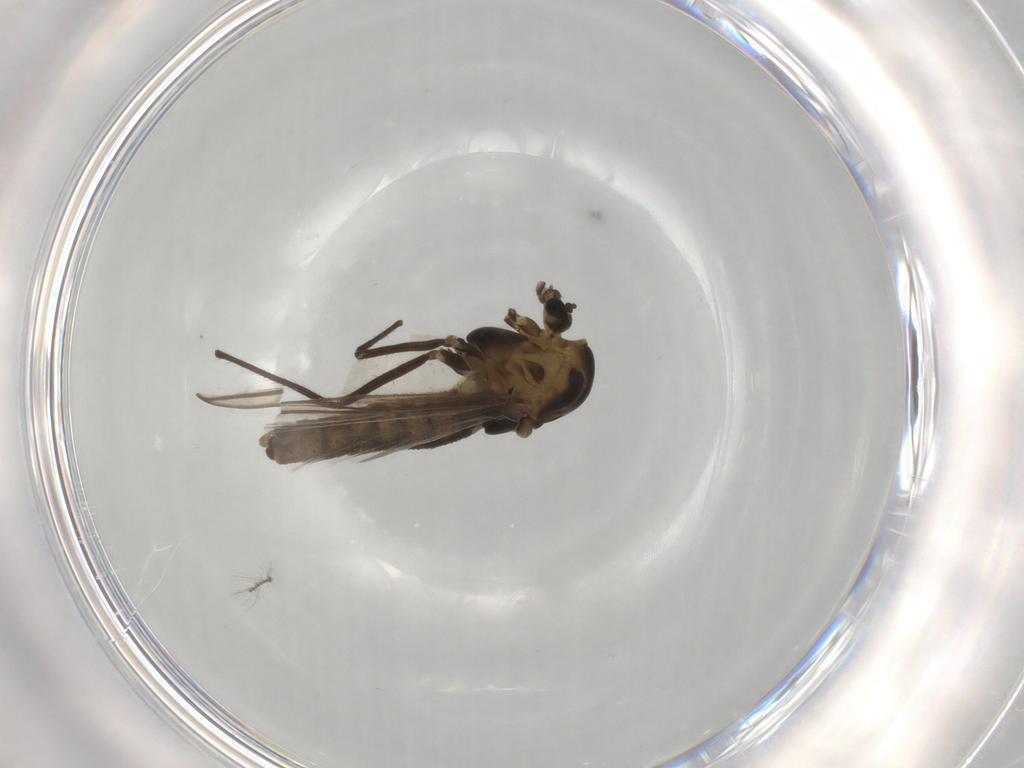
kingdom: Animalia
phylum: Arthropoda
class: Insecta
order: Diptera
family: Chironomidae
